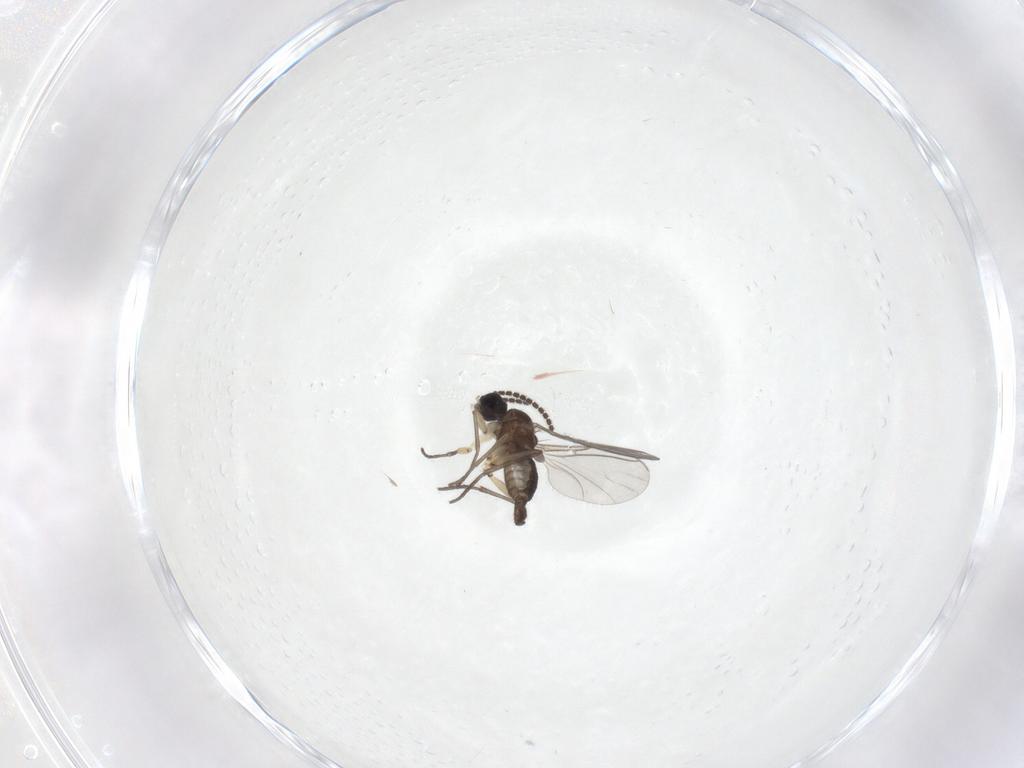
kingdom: Animalia
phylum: Arthropoda
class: Insecta
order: Diptera
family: Sciaridae
